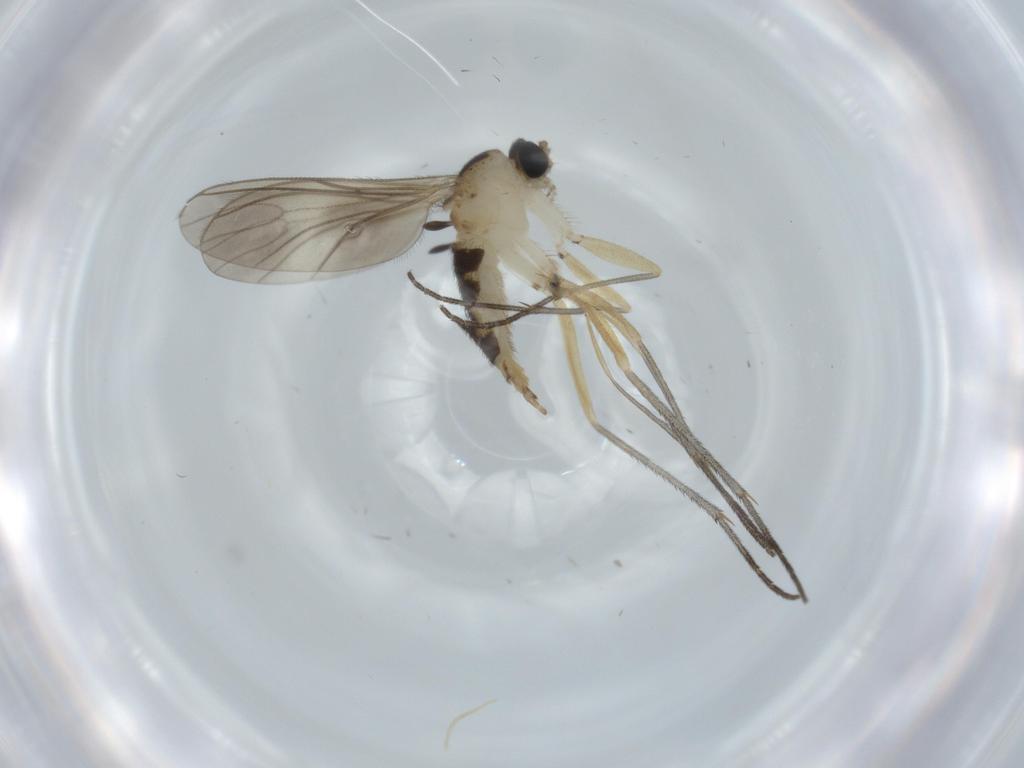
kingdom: Animalia
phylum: Arthropoda
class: Insecta
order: Diptera
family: Sciaridae
